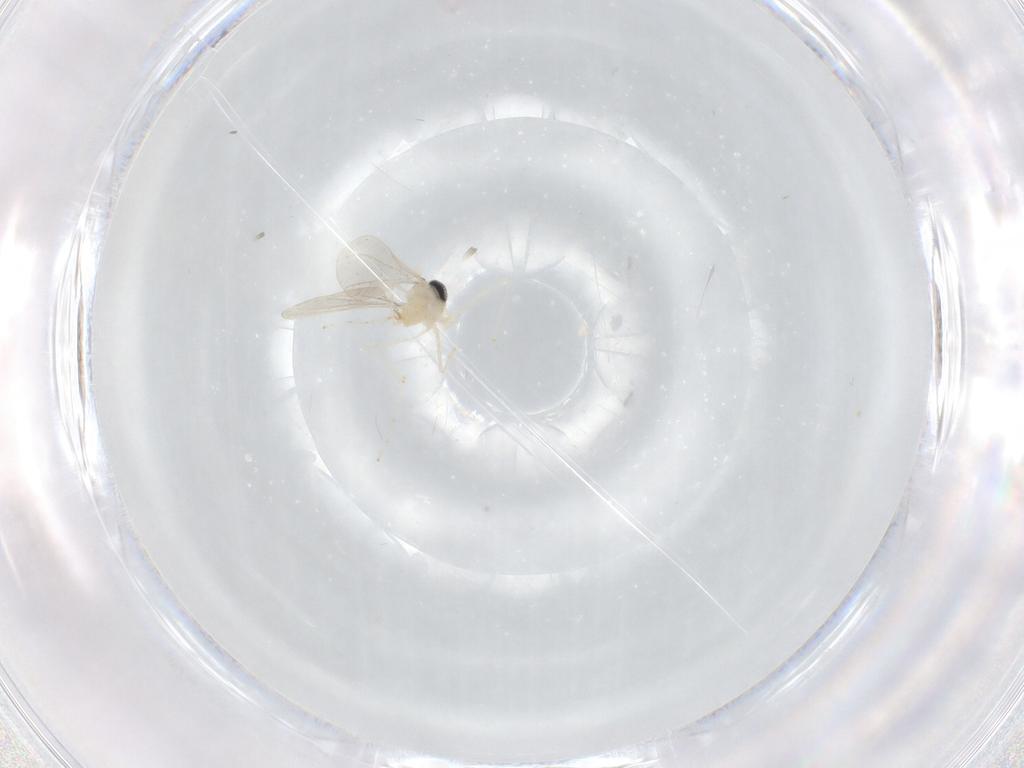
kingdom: Animalia
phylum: Arthropoda
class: Insecta
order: Diptera
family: Cecidomyiidae
